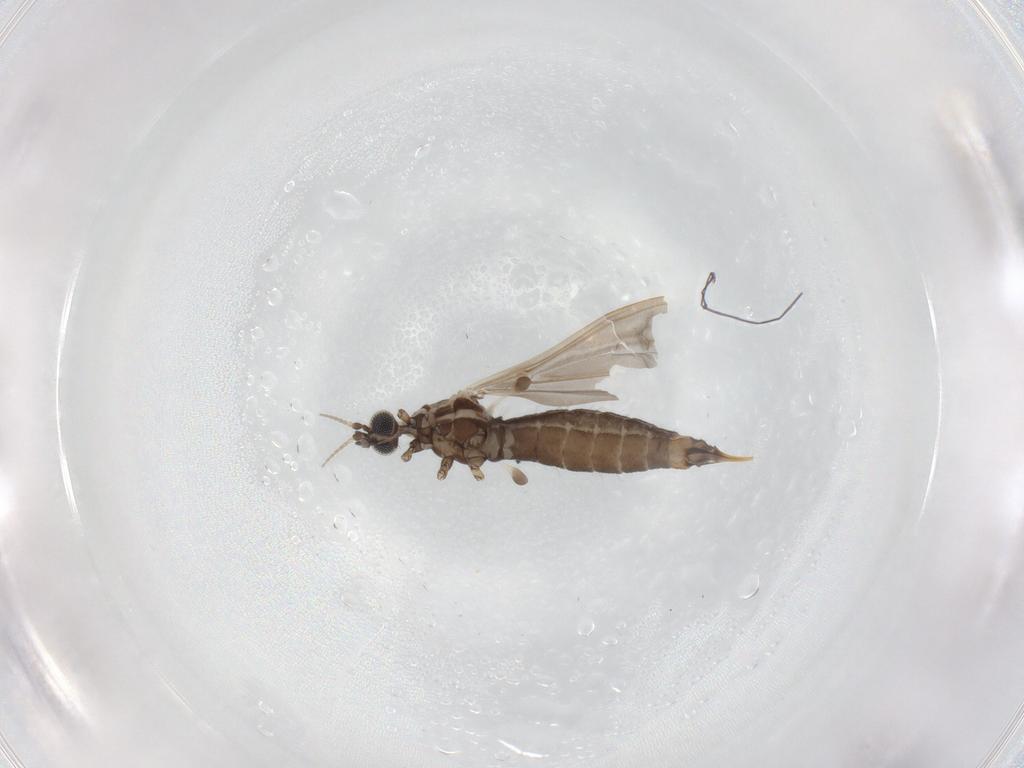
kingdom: Animalia
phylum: Arthropoda
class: Insecta
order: Diptera
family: Limoniidae
